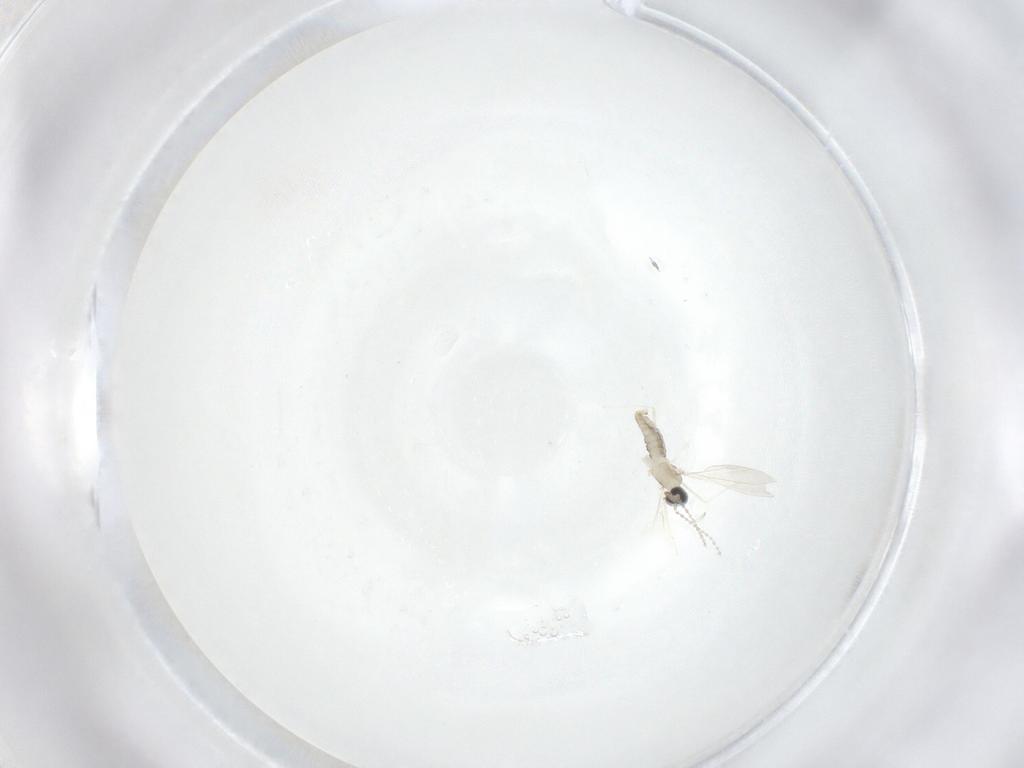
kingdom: Animalia
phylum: Arthropoda
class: Insecta
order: Diptera
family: Cecidomyiidae
